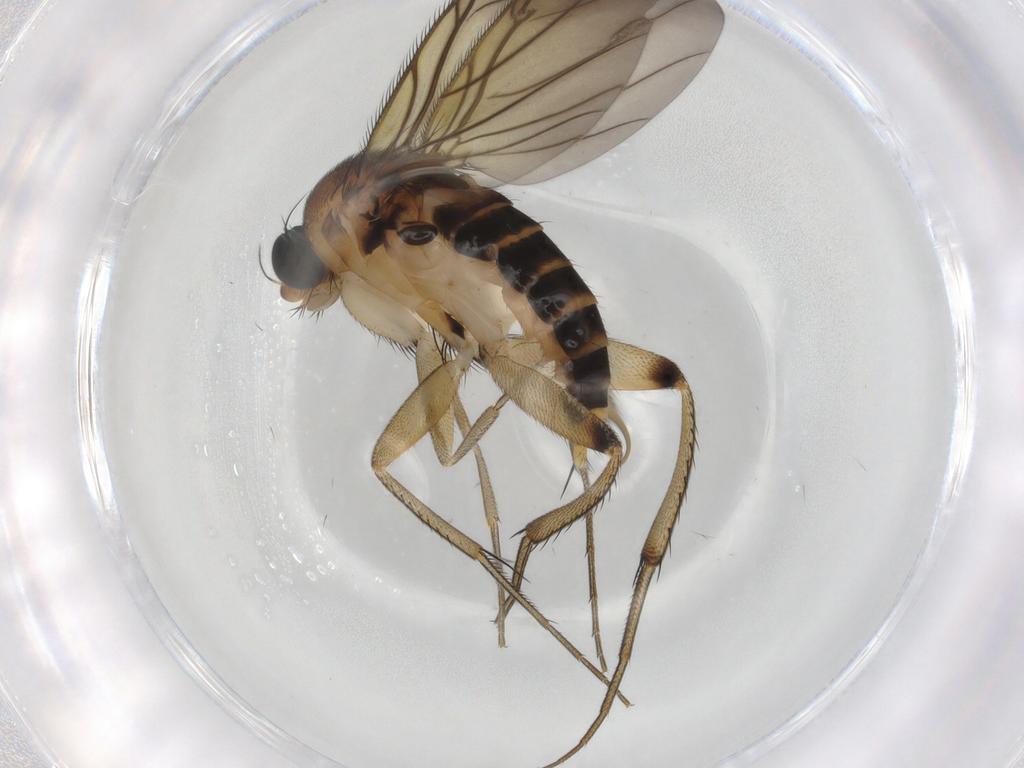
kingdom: Animalia
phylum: Arthropoda
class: Insecta
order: Diptera
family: Phoridae
